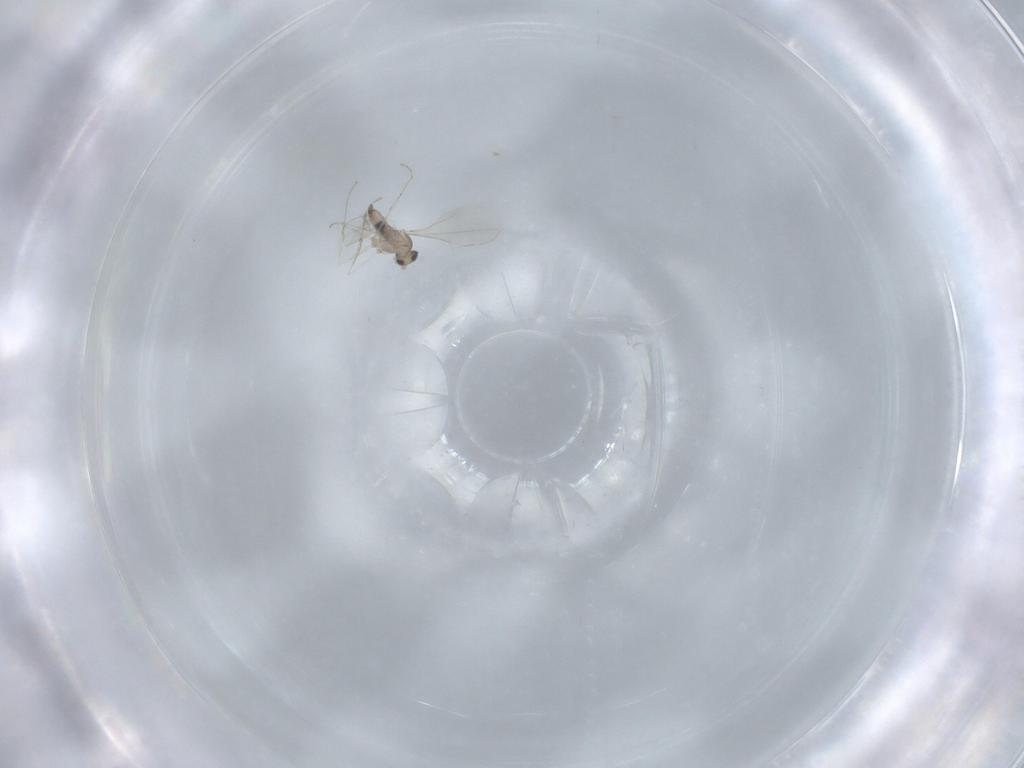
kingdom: Animalia
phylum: Arthropoda
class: Insecta
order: Diptera
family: Cecidomyiidae
